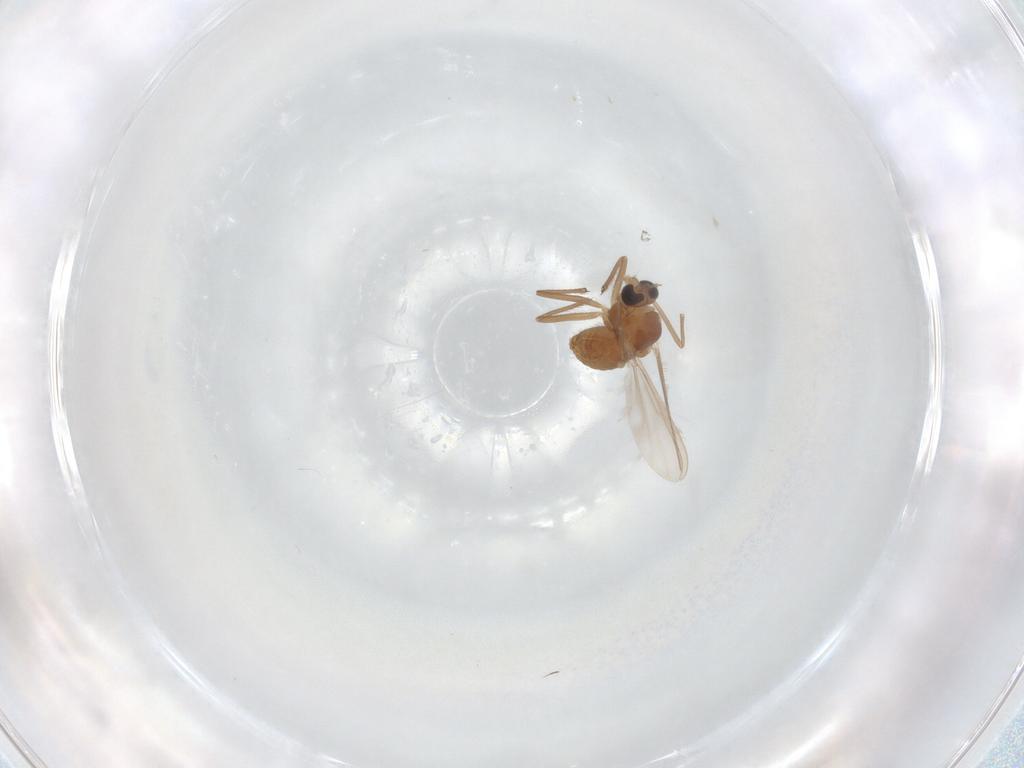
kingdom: Animalia
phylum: Arthropoda
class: Insecta
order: Diptera
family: Chironomidae
